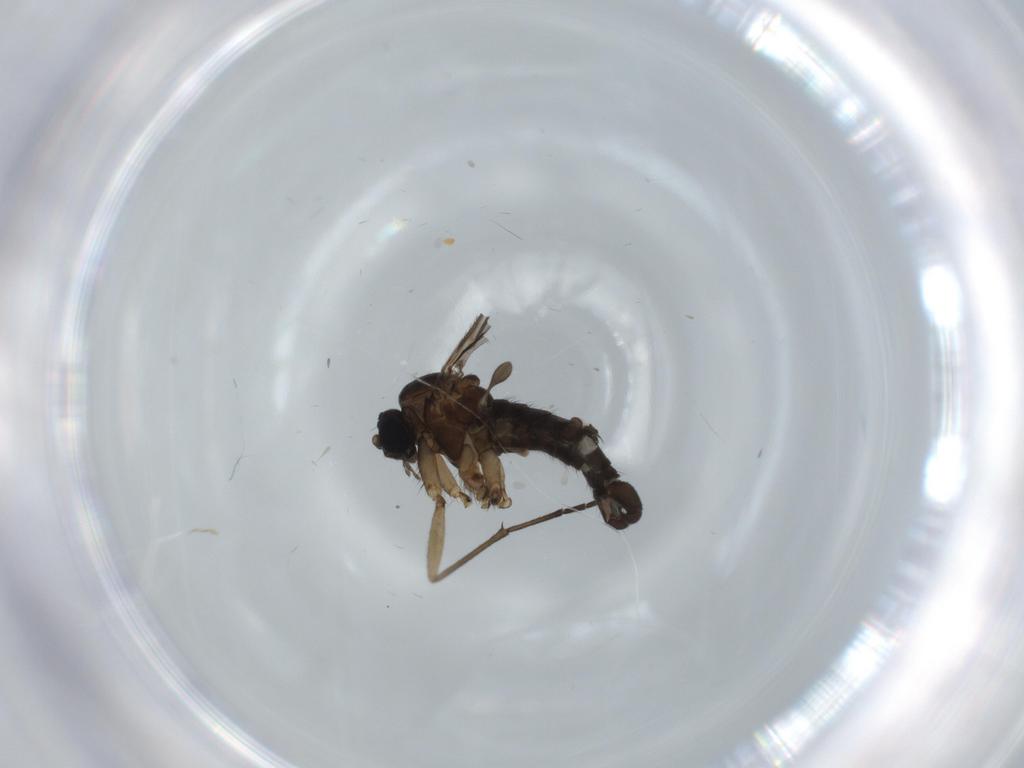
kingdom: Animalia
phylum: Arthropoda
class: Insecta
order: Diptera
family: Sciaridae
